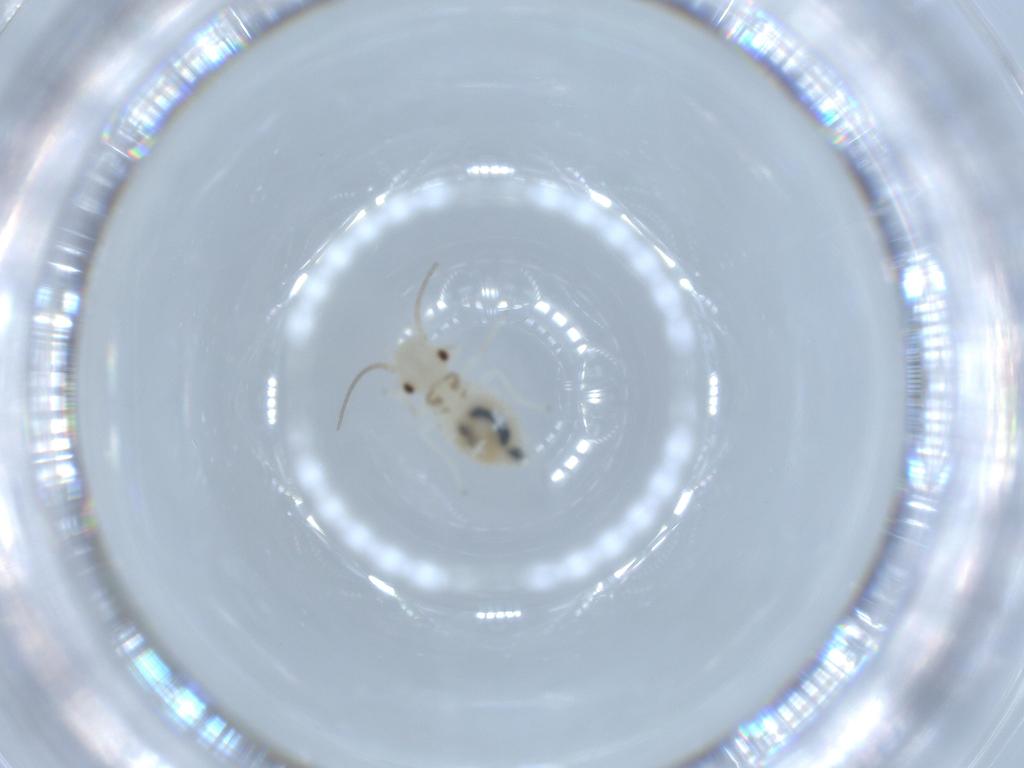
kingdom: Animalia
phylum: Arthropoda
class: Insecta
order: Psocodea
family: Caeciliusidae
